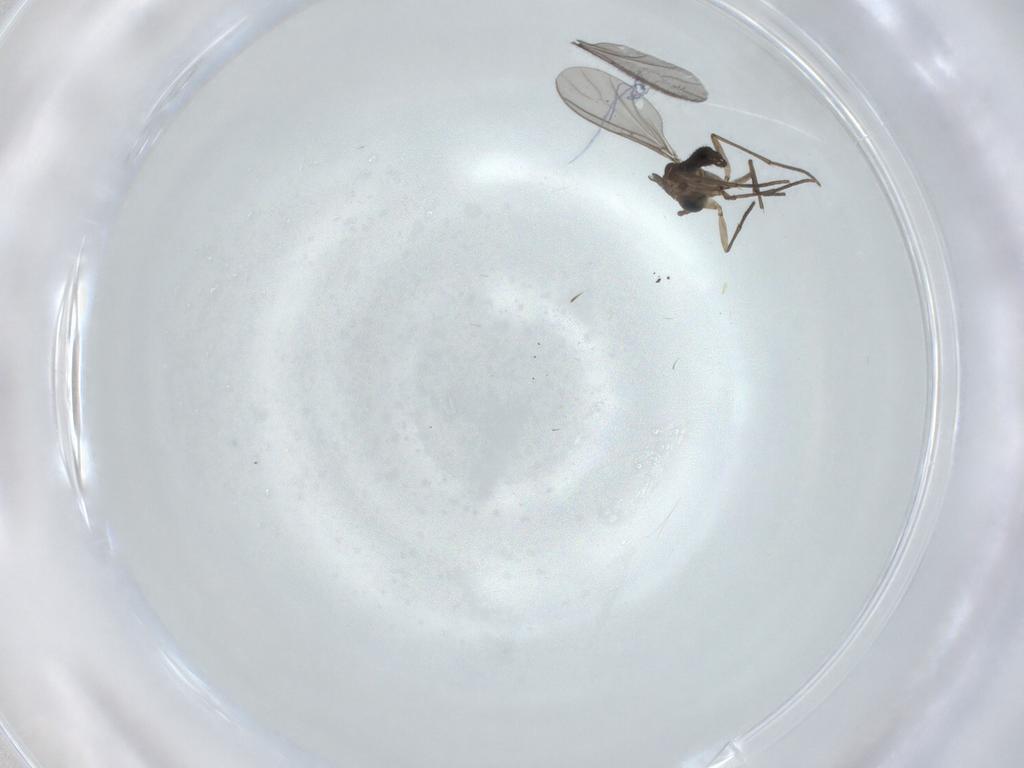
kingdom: Animalia
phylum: Arthropoda
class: Insecta
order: Diptera
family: Sciaridae
